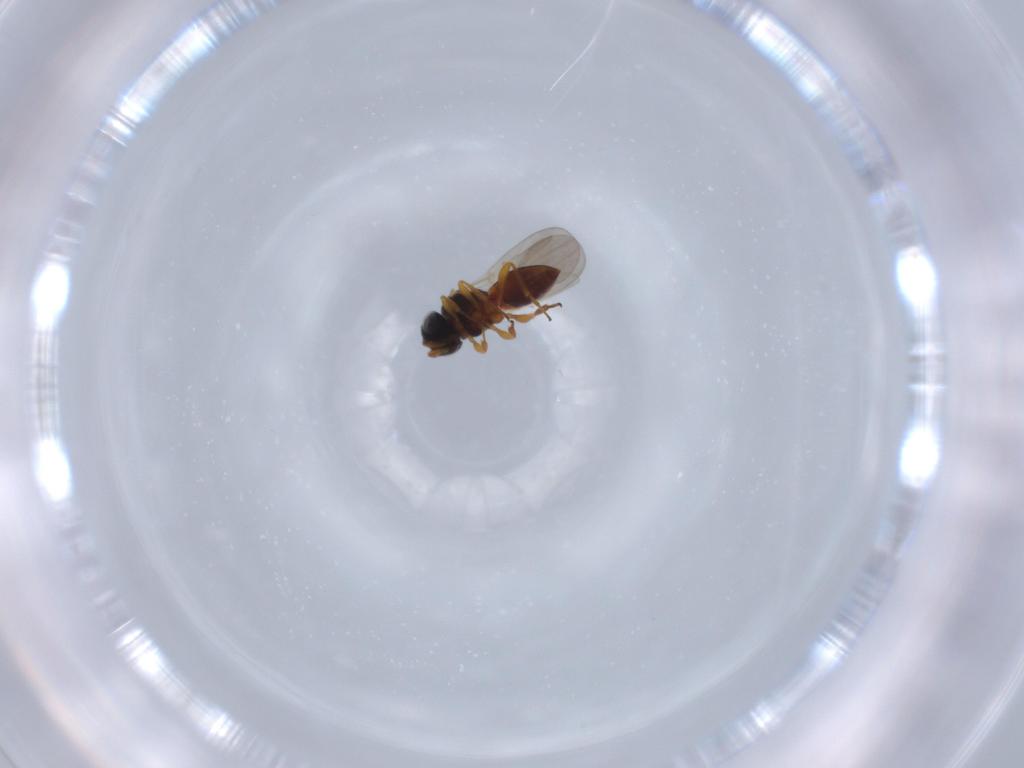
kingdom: Animalia
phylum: Arthropoda
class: Insecta
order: Hymenoptera
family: Platygastridae
